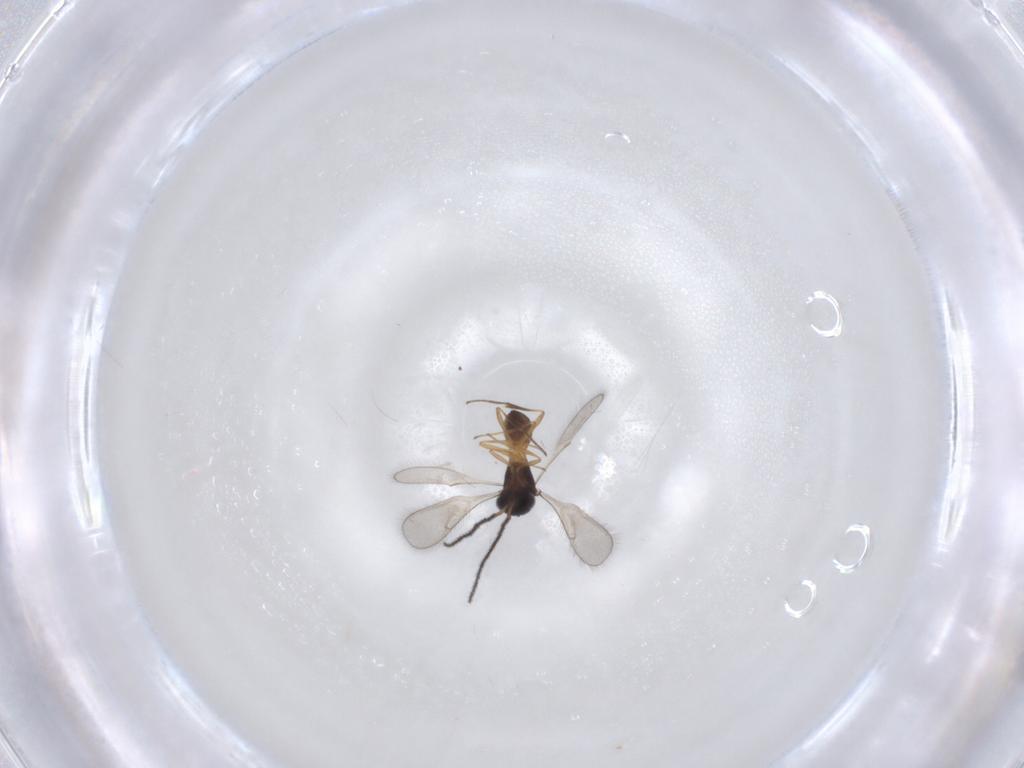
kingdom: Animalia
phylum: Arthropoda
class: Insecta
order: Hymenoptera
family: Scelionidae
